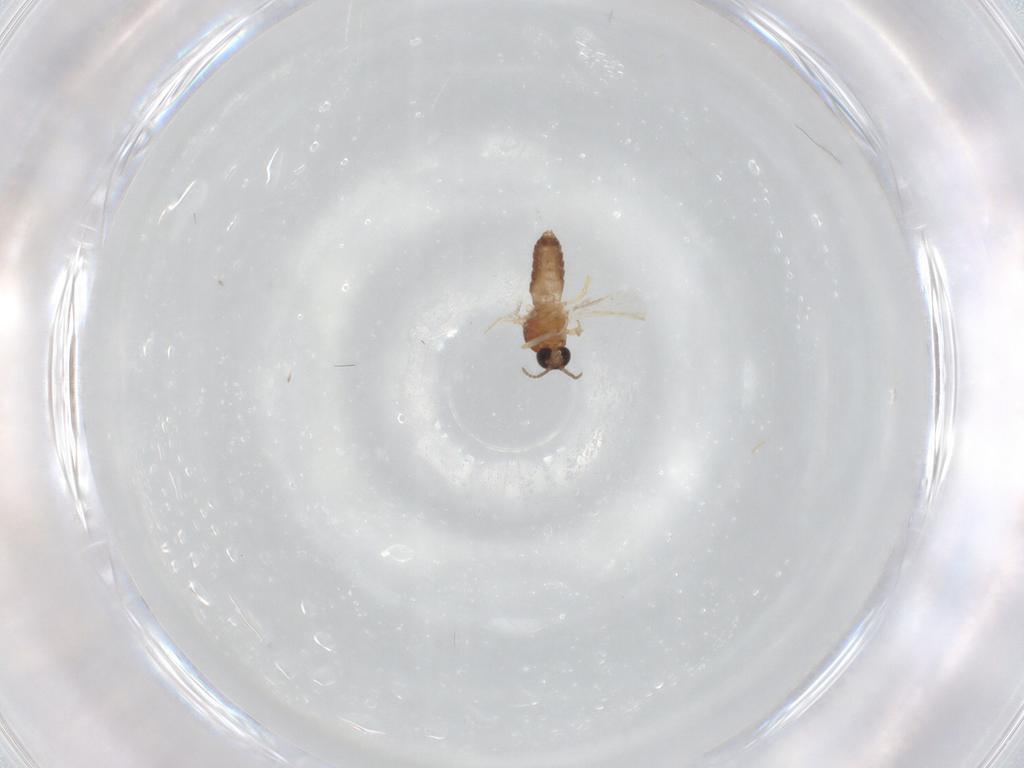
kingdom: Animalia
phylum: Arthropoda
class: Insecta
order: Diptera
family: Ceratopogonidae
